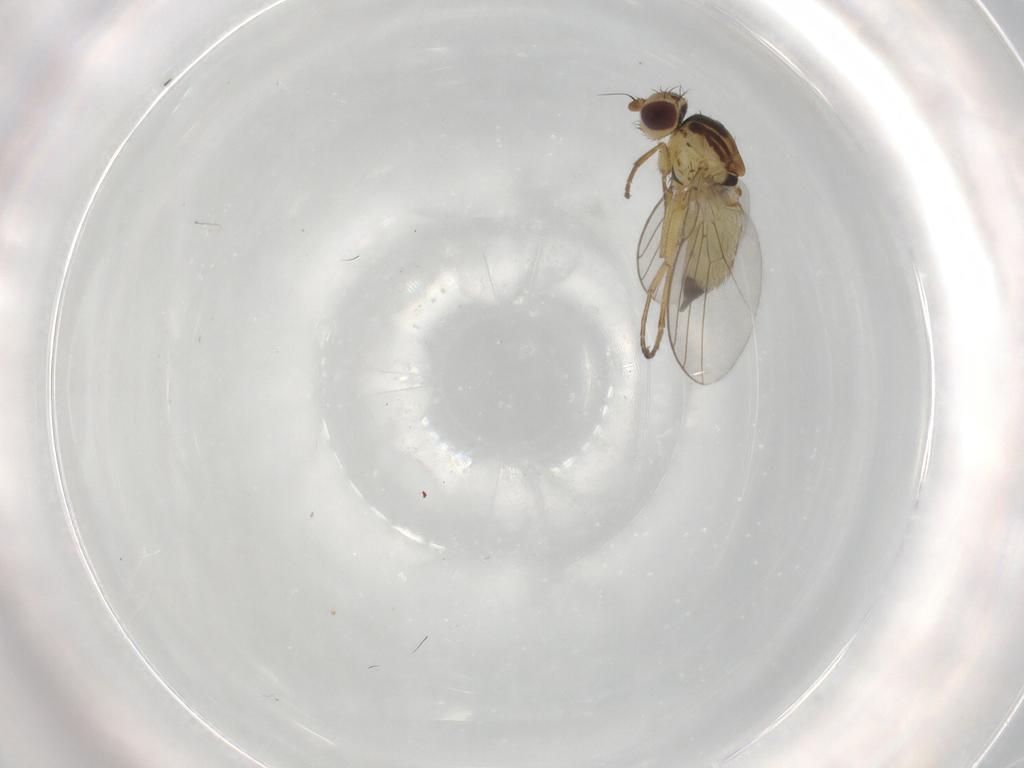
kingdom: Animalia
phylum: Arthropoda
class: Insecta
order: Diptera
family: Agromyzidae
